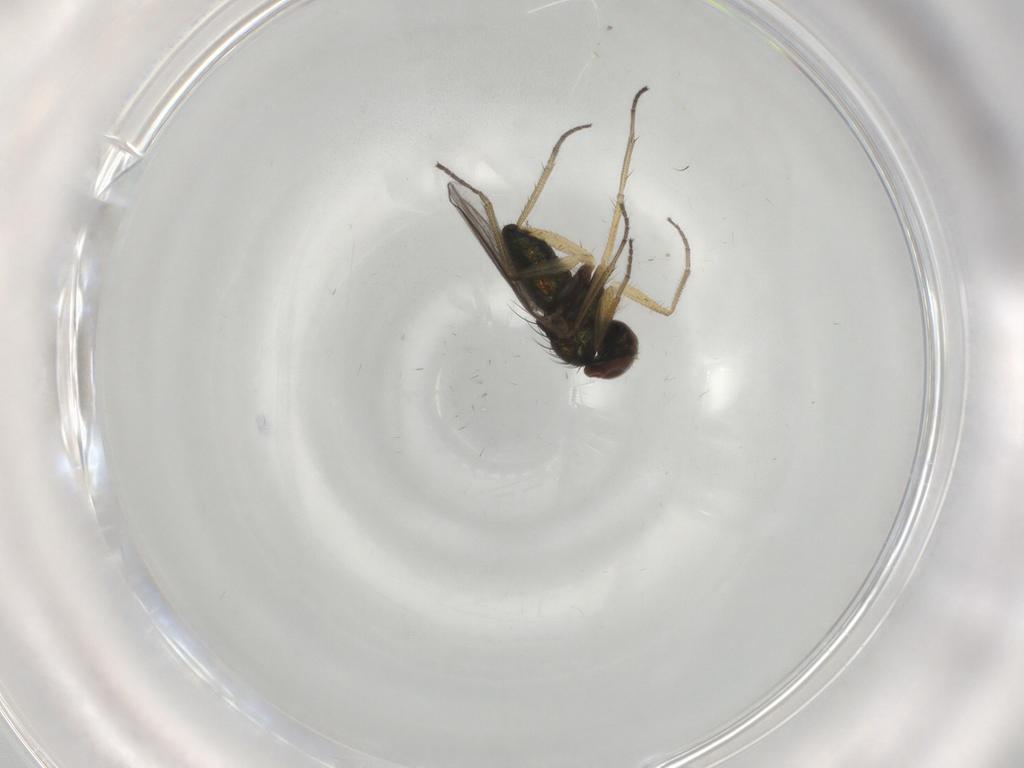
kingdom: Animalia
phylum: Arthropoda
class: Insecta
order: Diptera
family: Dolichopodidae
